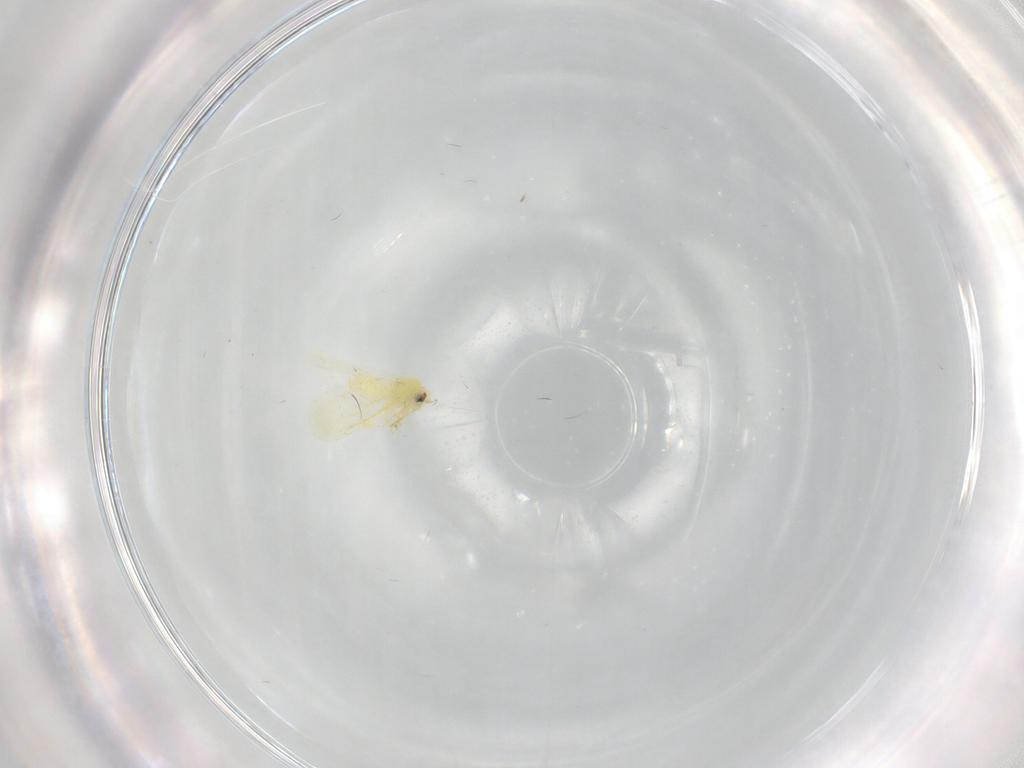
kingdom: Animalia
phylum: Arthropoda
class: Insecta
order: Hemiptera
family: Aleyrodidae
